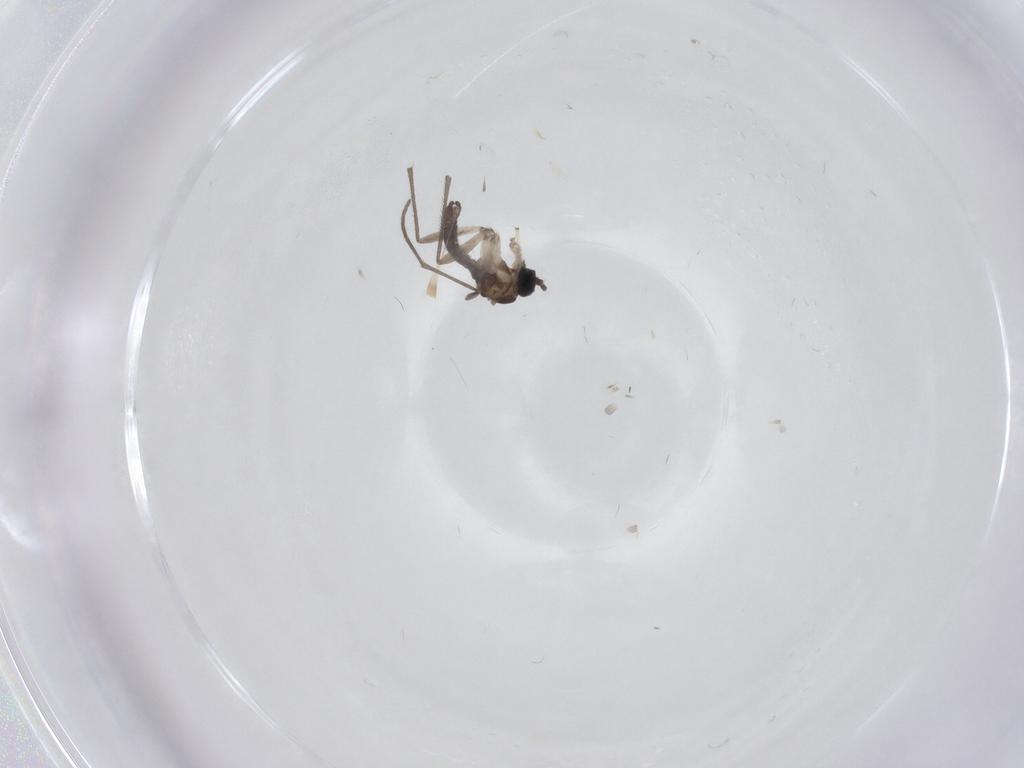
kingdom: Animalia
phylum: Arthropoda
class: Insecta
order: Diptera
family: Sciaridae
